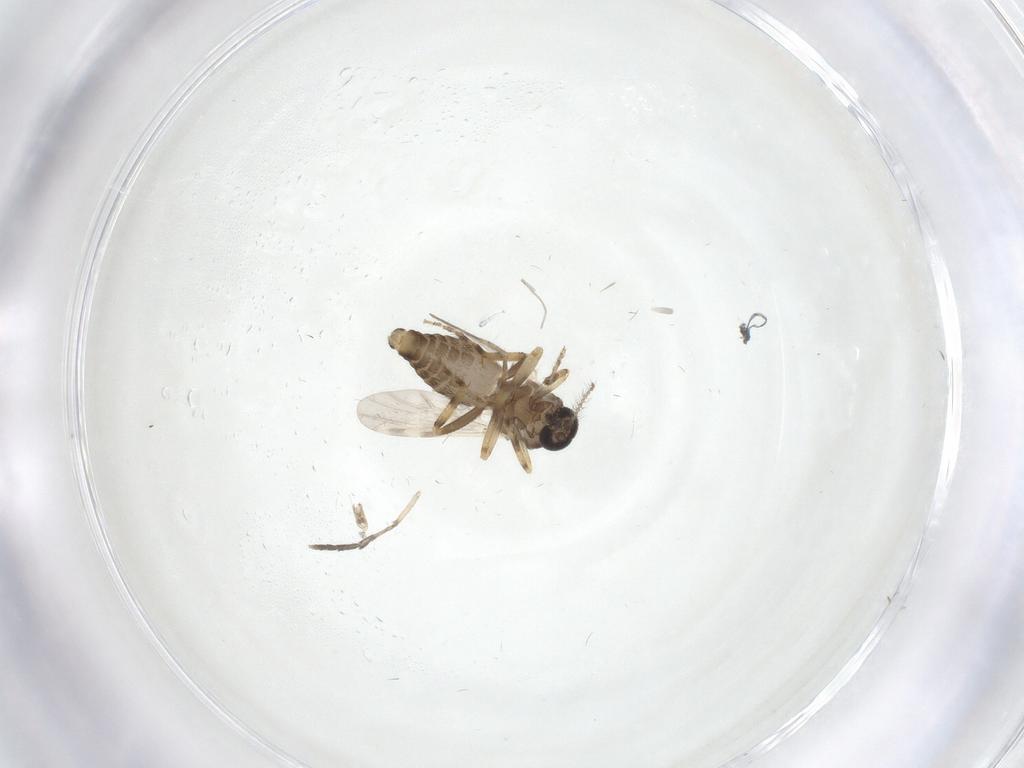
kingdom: Animalia
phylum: Arthropoda
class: Insecta
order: Diptera
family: Ceratopogonidae
